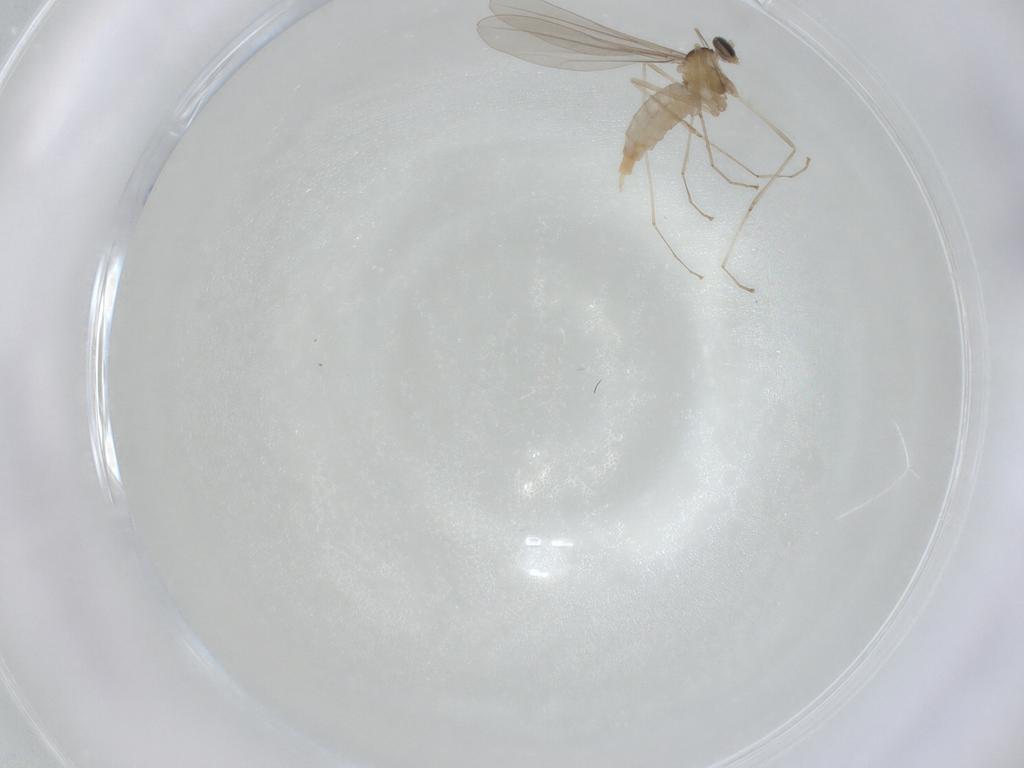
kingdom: Animalia
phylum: Arthropoda
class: Insecta
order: Diptera
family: Cecidomyiidae
